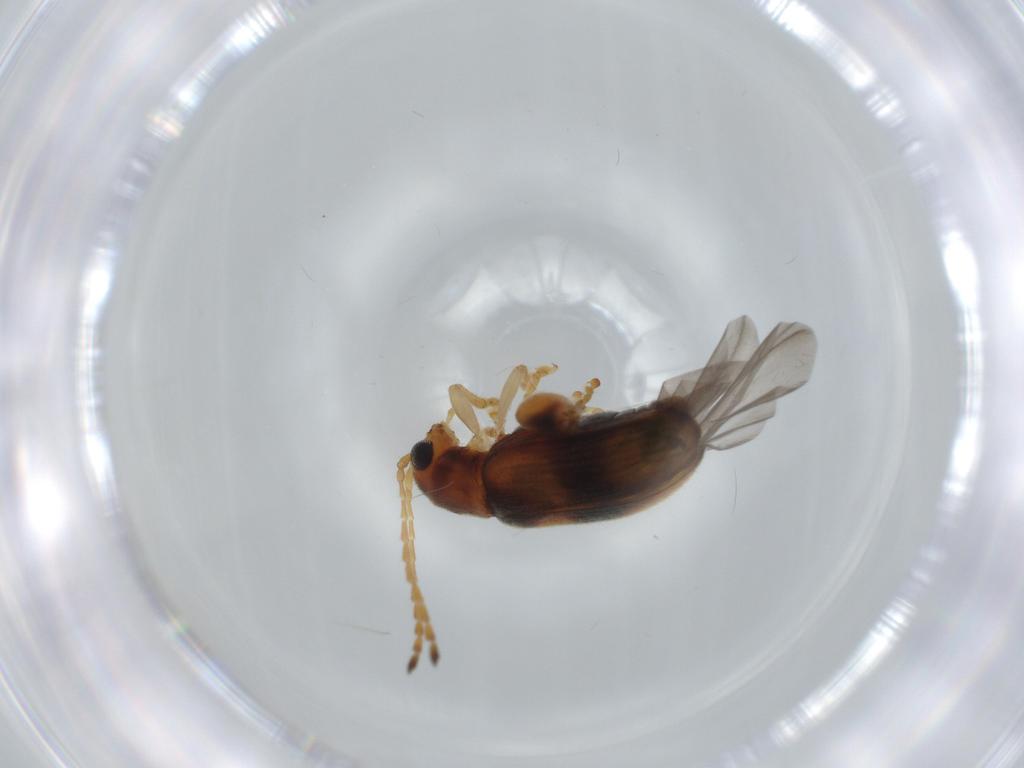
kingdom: Animalia
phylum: Arthropoda
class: Insecta
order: Coleoptera
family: Chrysomelidae
